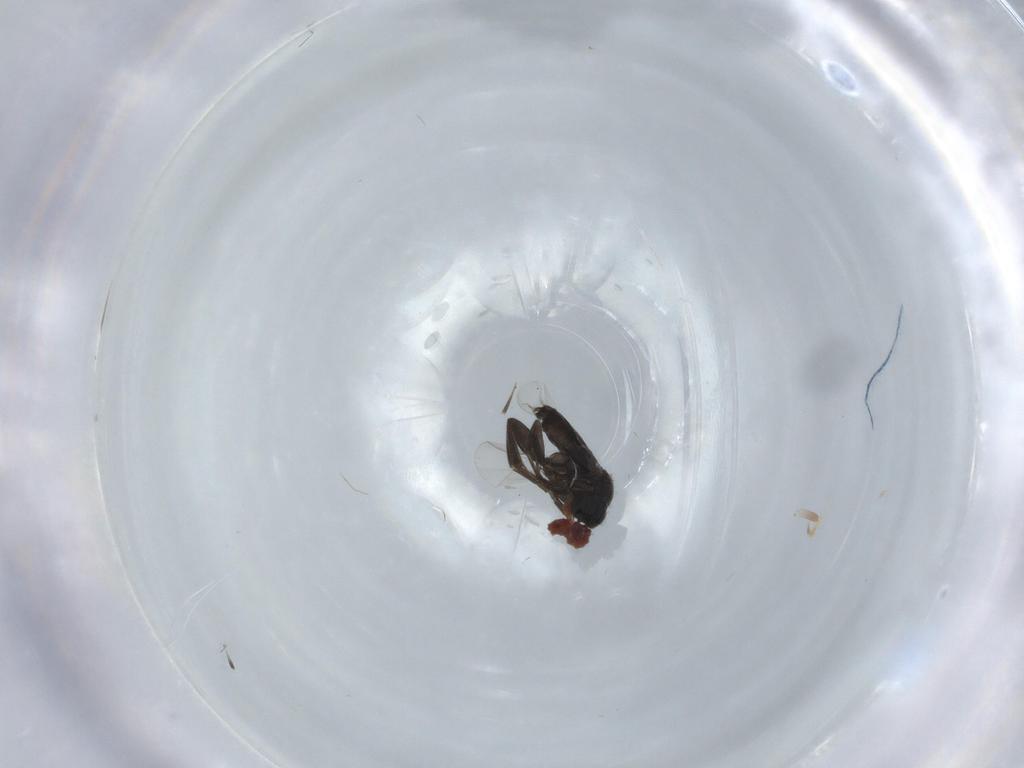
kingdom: Animalia
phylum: Arthropoda
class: Insecta
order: Diptera
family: Phoridae
